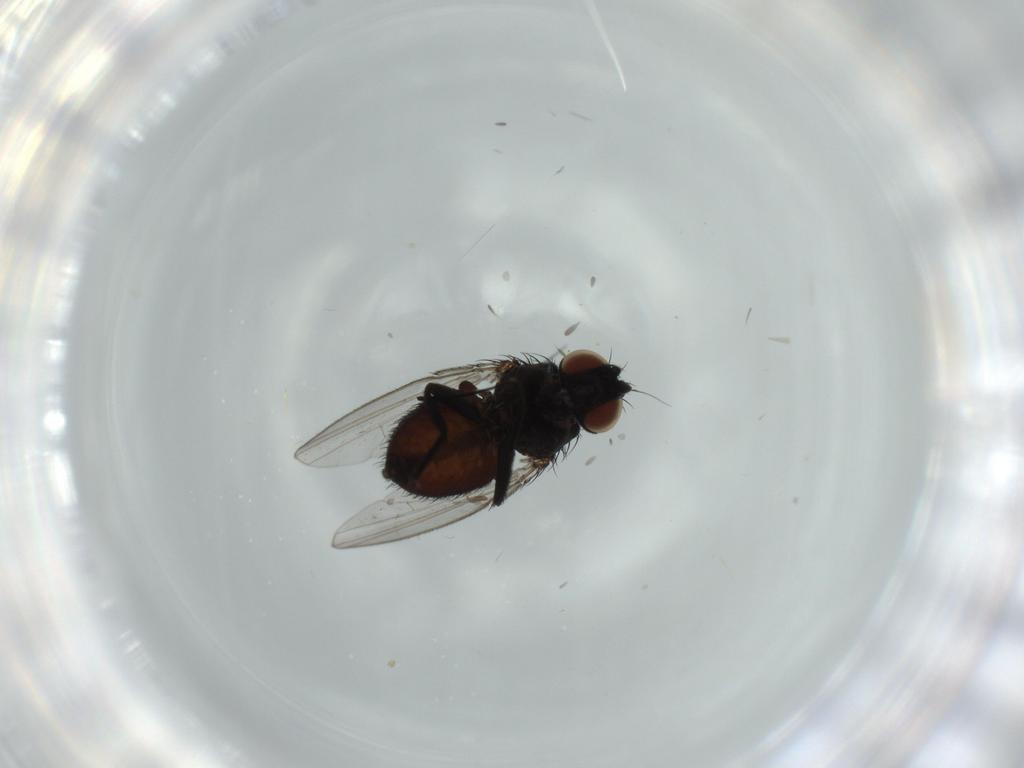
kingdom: Animalia
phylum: Arthropoda
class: Insecta
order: Diptera
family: Milichiidae
